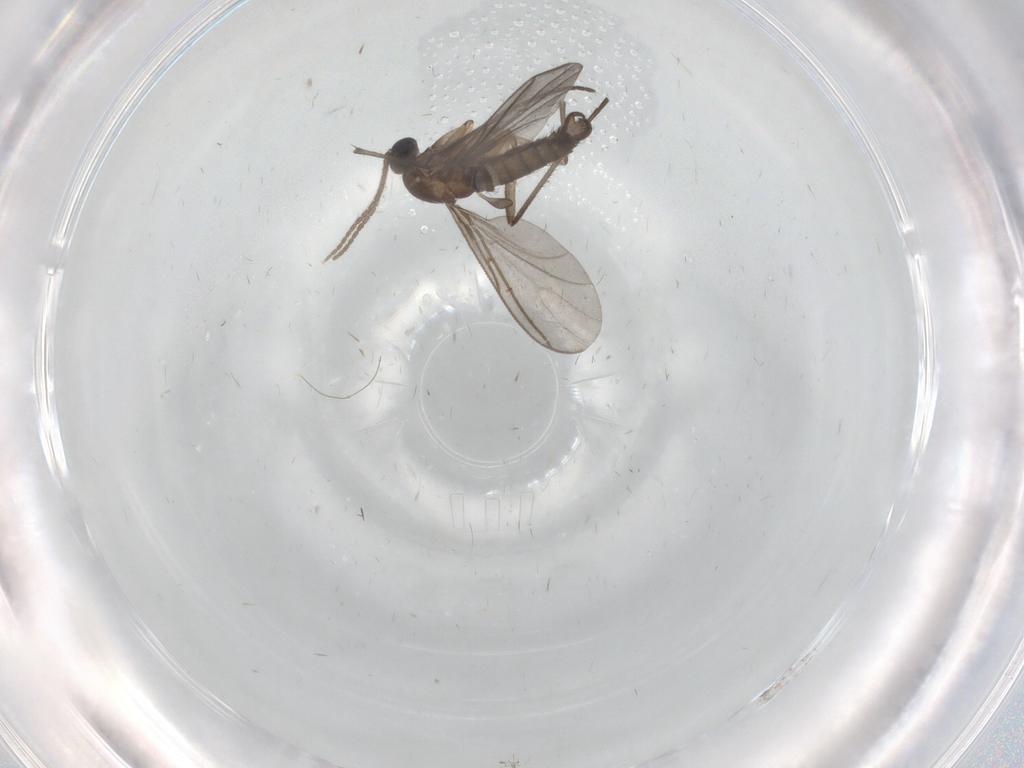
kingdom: Animalia
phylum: Arthropoda
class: Insecta
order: Diptera
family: Sciaridae
